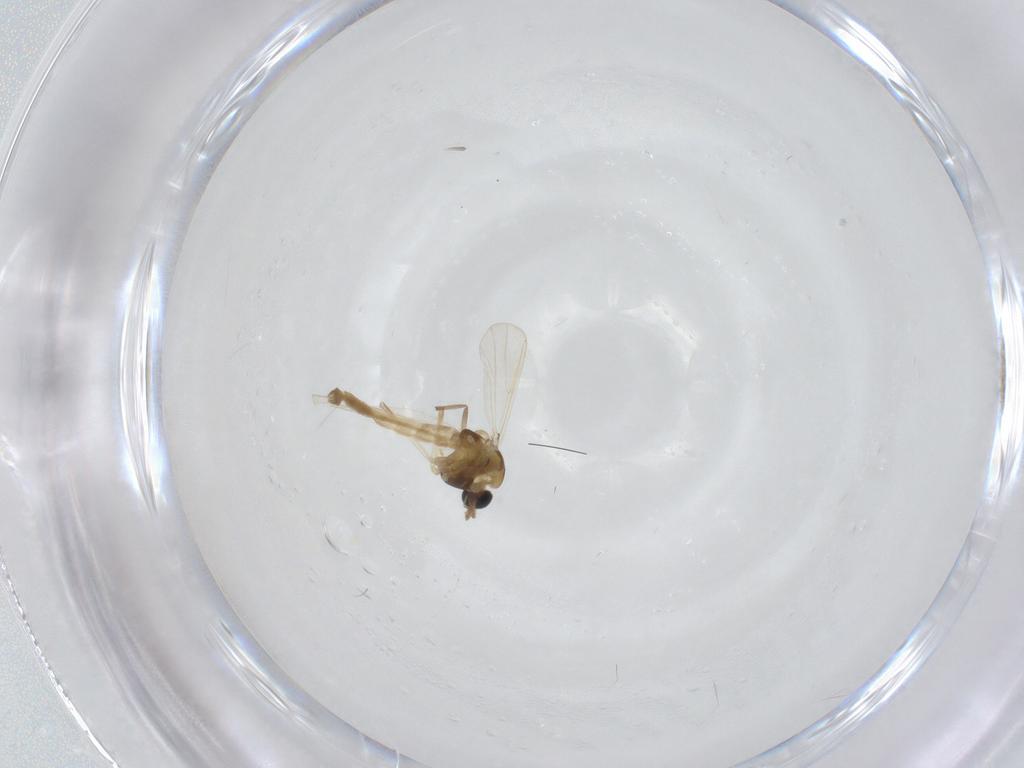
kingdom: Animalia
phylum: Arthropoda
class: Insecta
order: Diptera
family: Chironomidae
